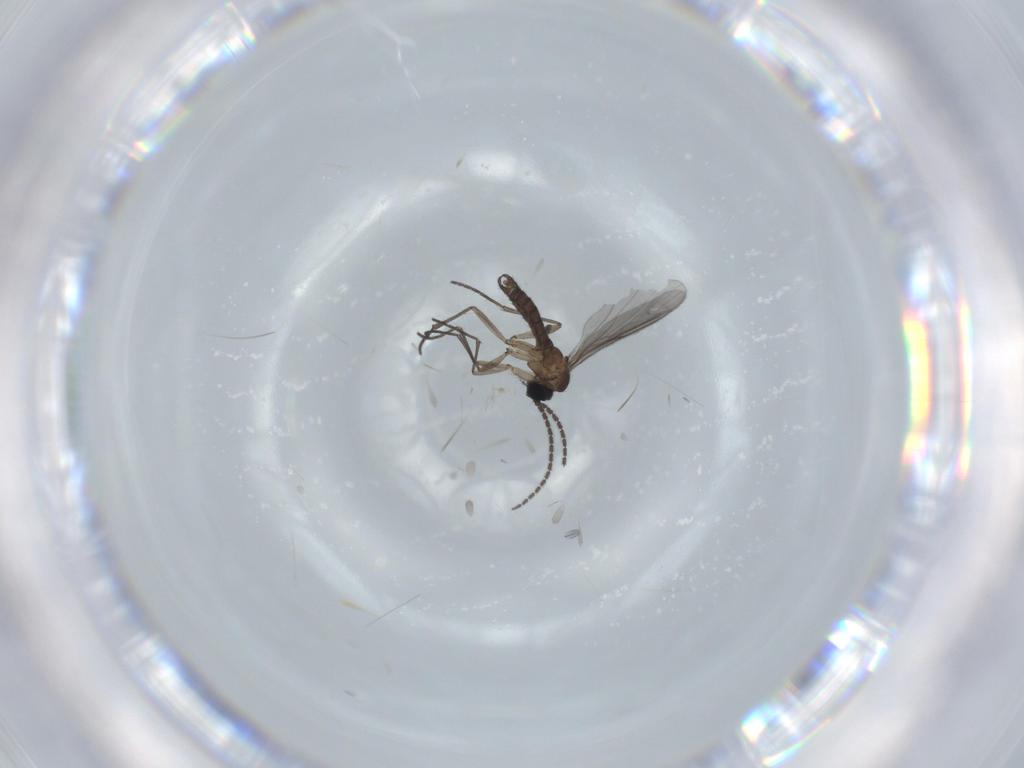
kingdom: Animalia
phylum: Arthropoda
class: Insecta
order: Diptera
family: Sciaridae
